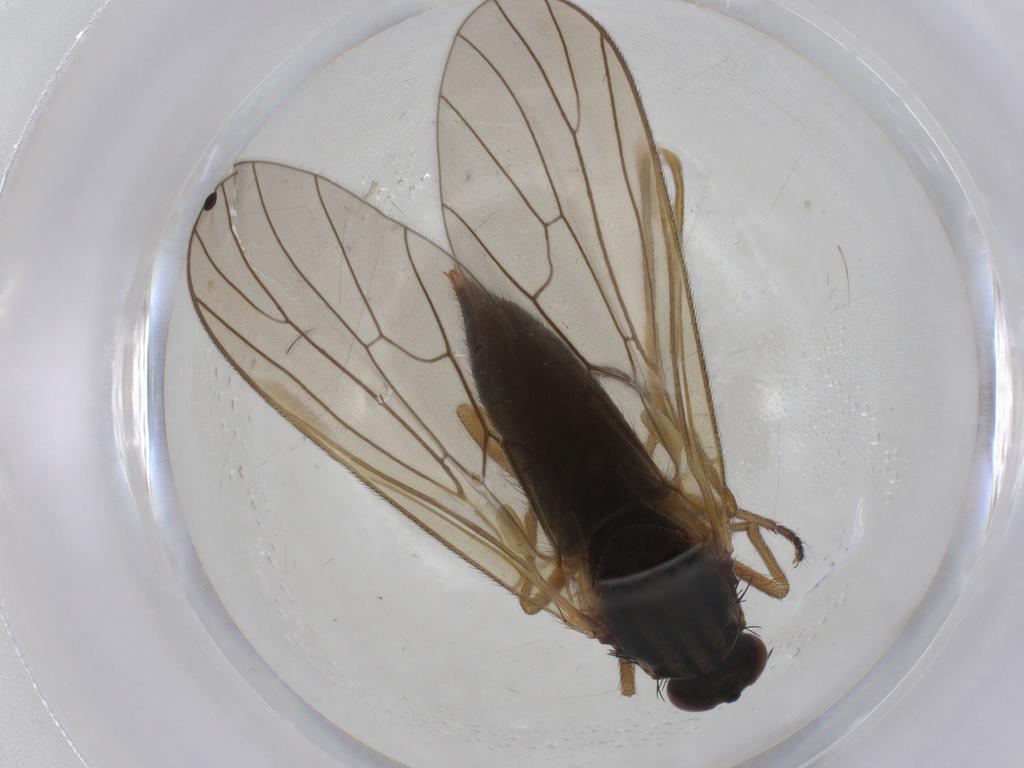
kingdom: Animalia
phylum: Arthropoda
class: Insecta
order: Diptera
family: Brachystomatidae
